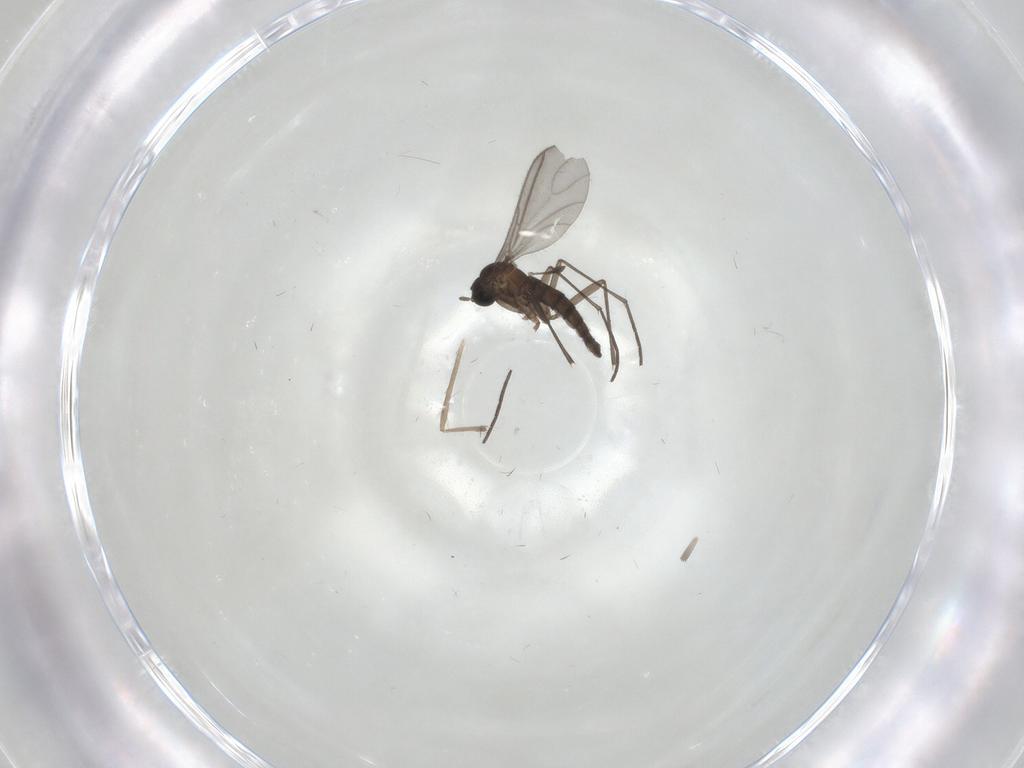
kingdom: Animalia
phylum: Arthropoda
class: Insecta
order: Diptera
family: Sciaridae
